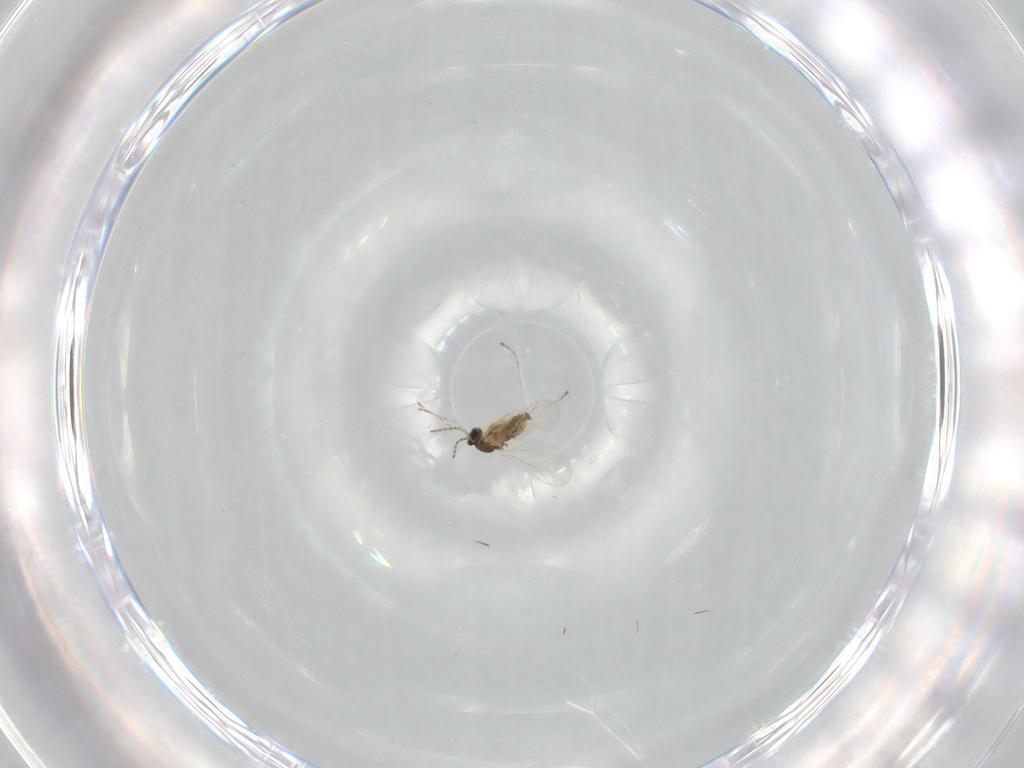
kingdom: Animalia
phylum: Arthropoda
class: Insecta
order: Diptera
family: Cecidomyiidae
